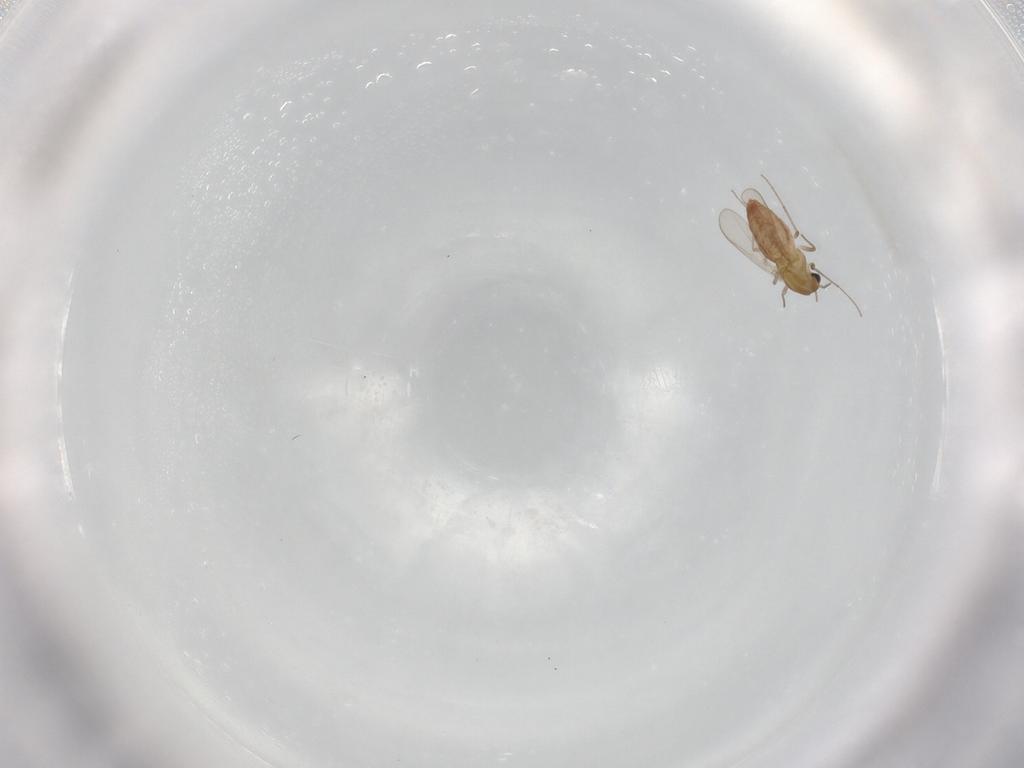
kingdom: Animalia
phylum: Arthropoda
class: Insecta
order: Diptera
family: Chironomidae
